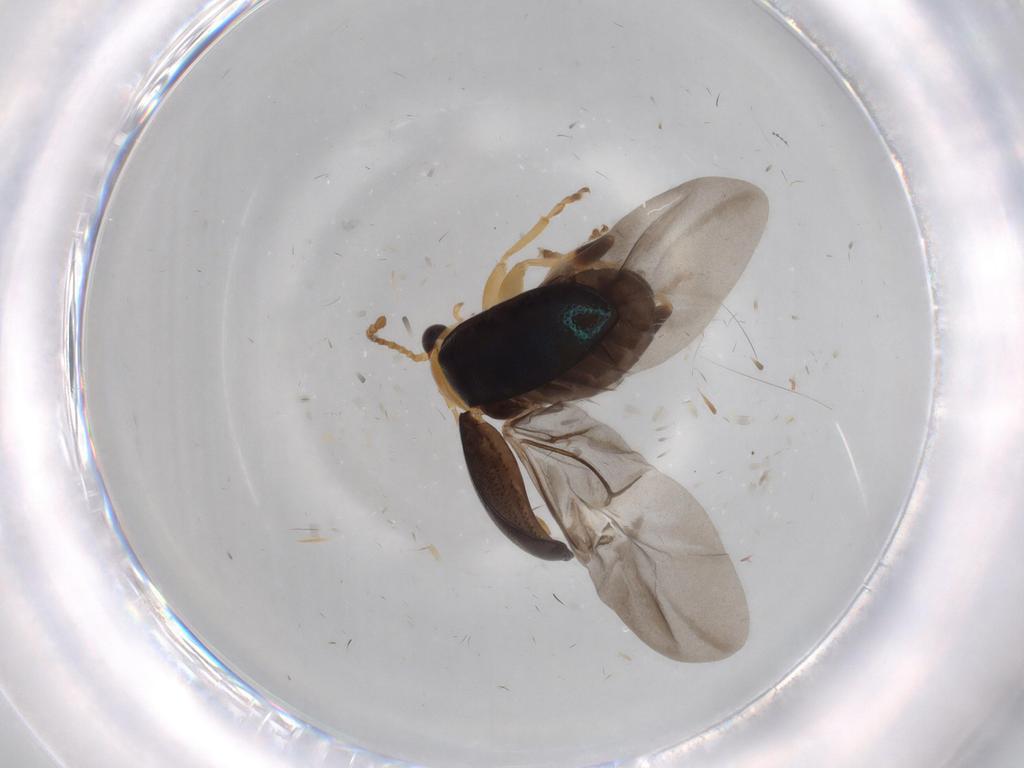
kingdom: Animalia
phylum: Arthropoda
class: Insecta
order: Coleoptera
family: Chrysomelidae
